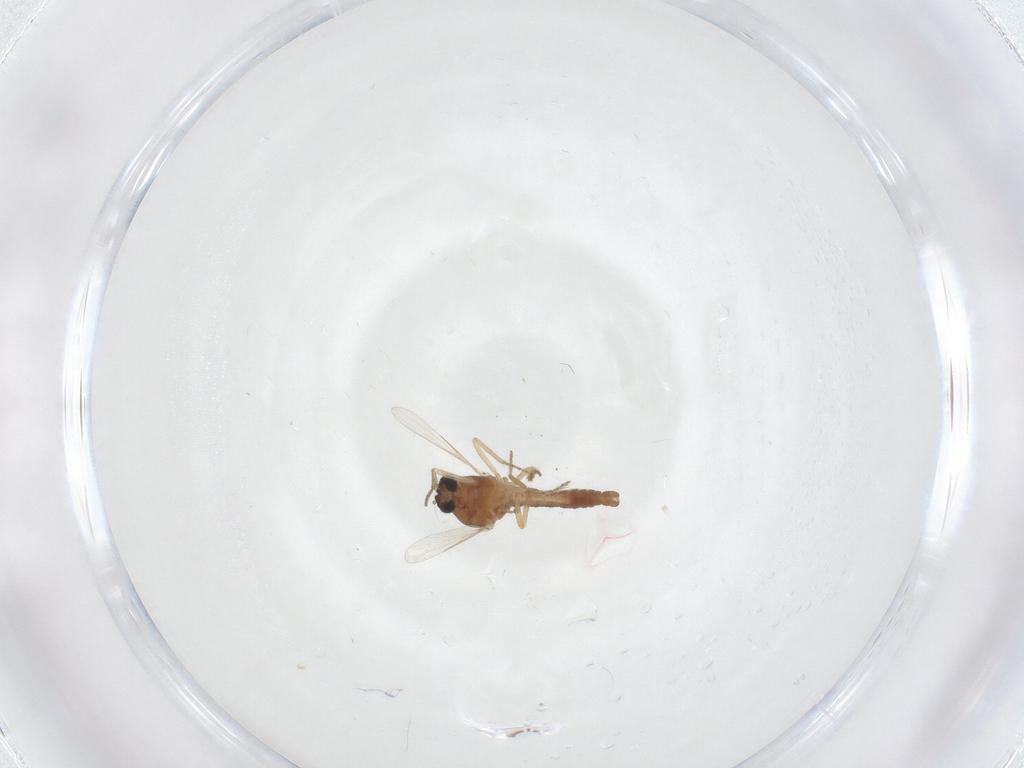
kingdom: Animalia
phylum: Arthropoda
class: Insecta
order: Diptera
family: Ceratopogonidae
